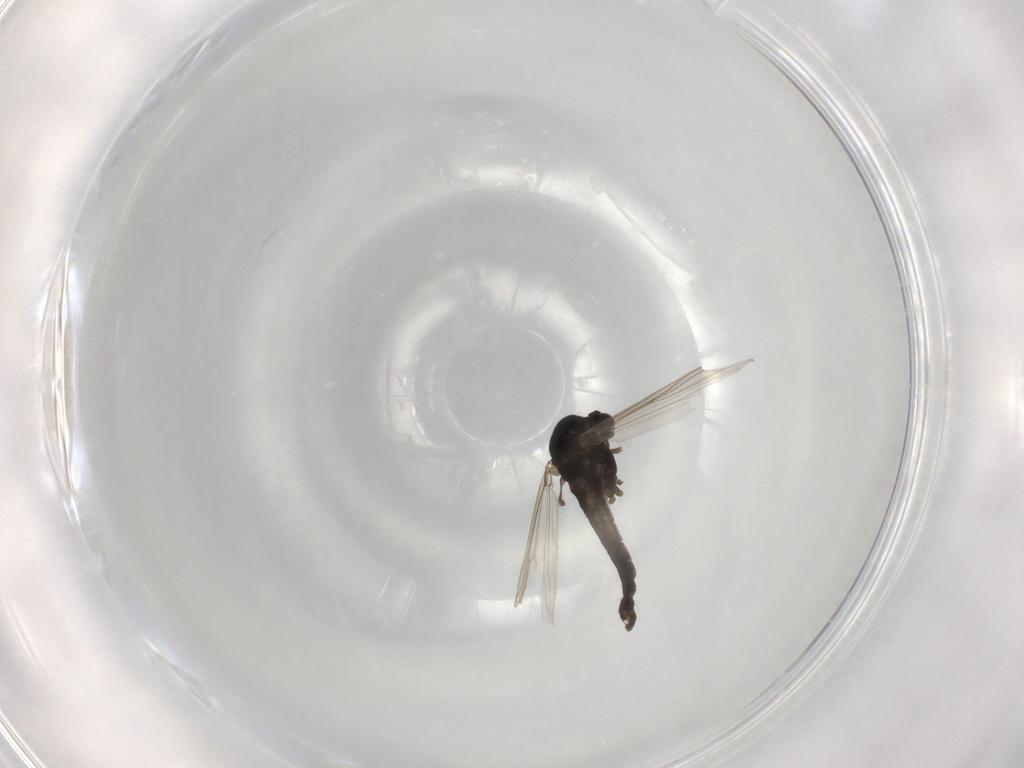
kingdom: Animalia
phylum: Arthropoda
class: Insecta
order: Diptera
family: Chironomidae
